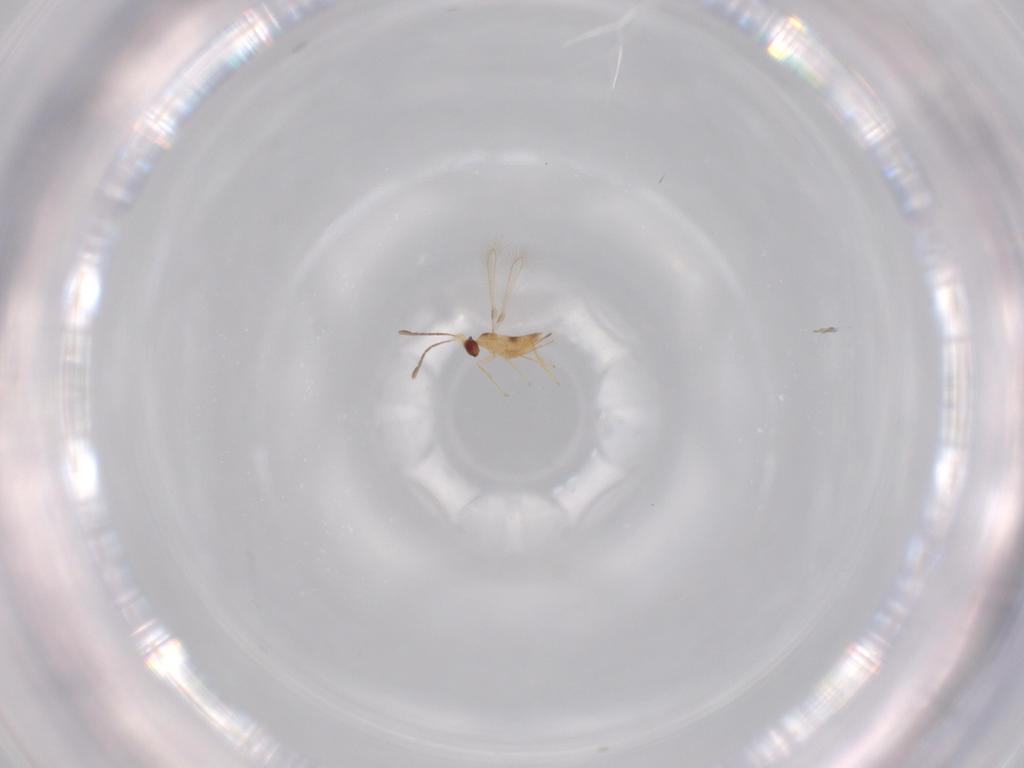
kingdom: Animalia
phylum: Arthropoda
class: Insecta
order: Hymenoptera
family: Mymaridae
